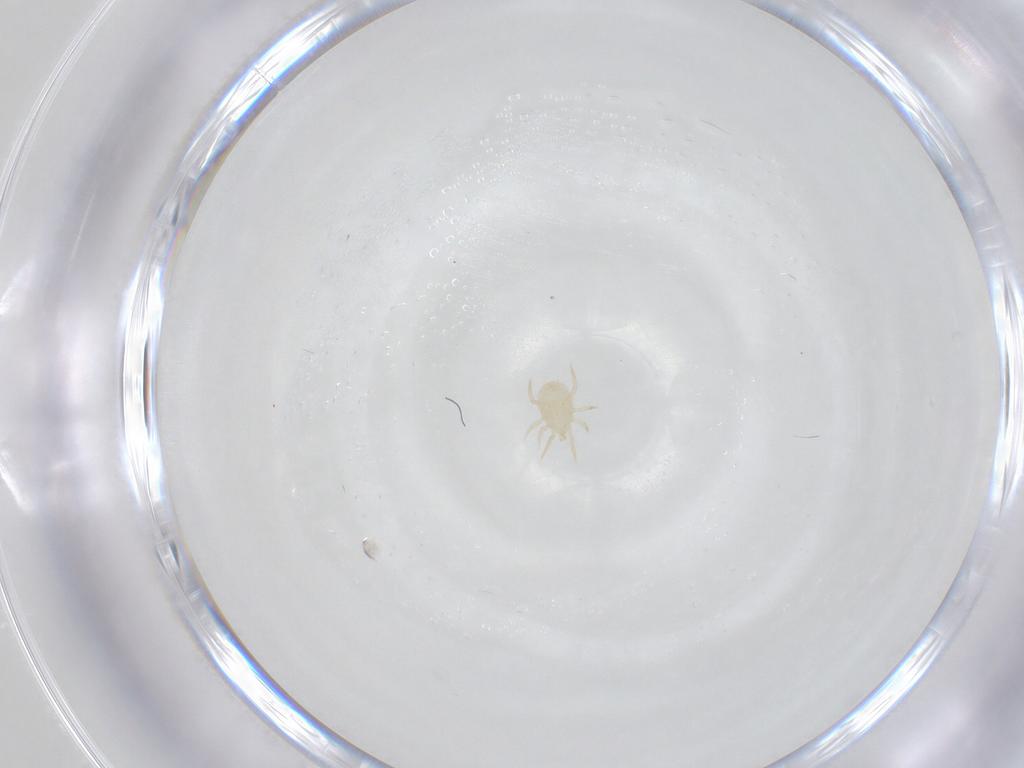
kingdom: Animalia
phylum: Arthropoda
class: Arachnida
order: Mesostigmata
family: Ameroseiidae
